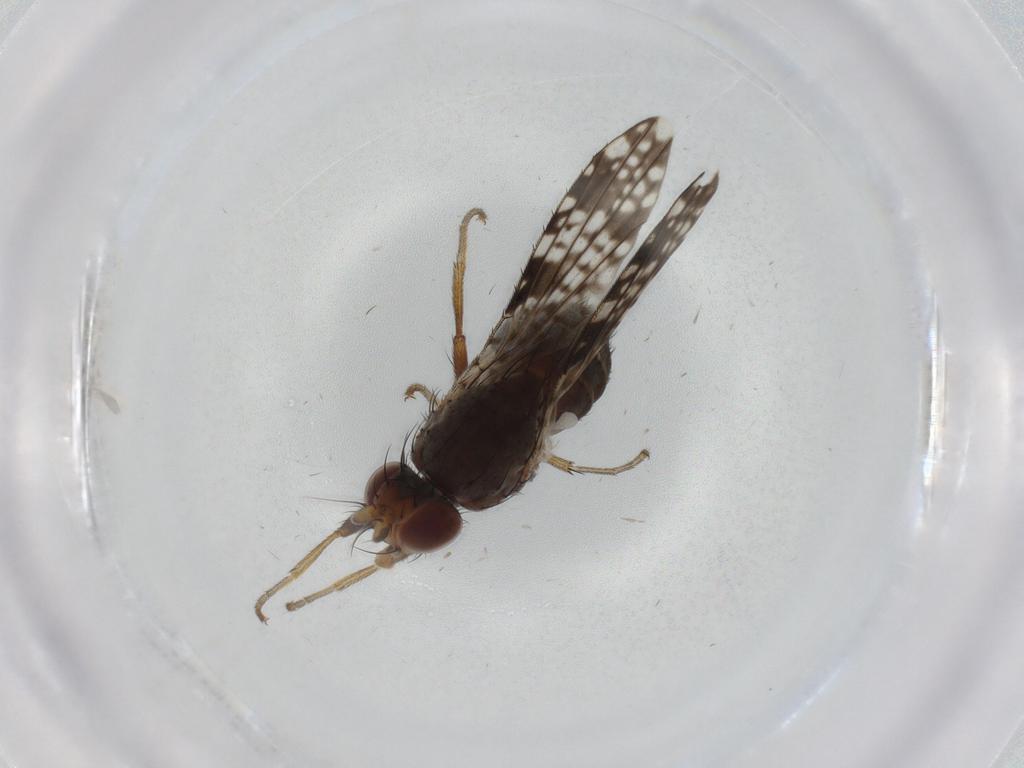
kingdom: Animalia
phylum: Arthropoda
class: Insecta
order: Diptera
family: Tephritidae
